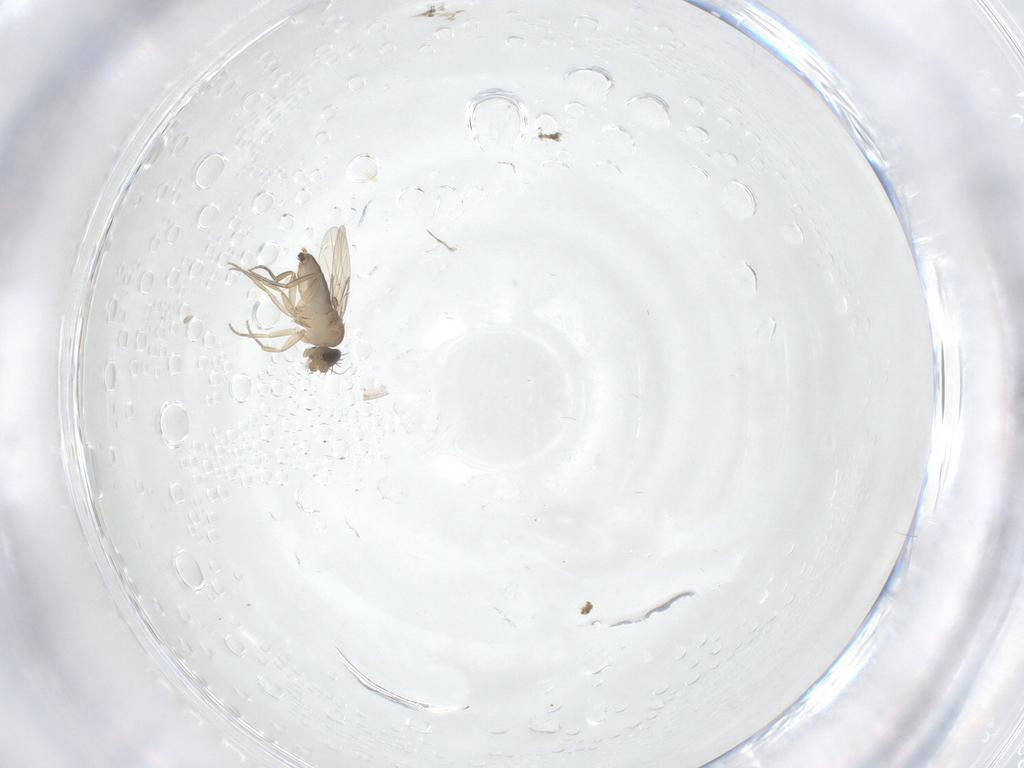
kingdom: Animalia
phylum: Arthropoda
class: Insecta
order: Diptera
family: Phoridae
